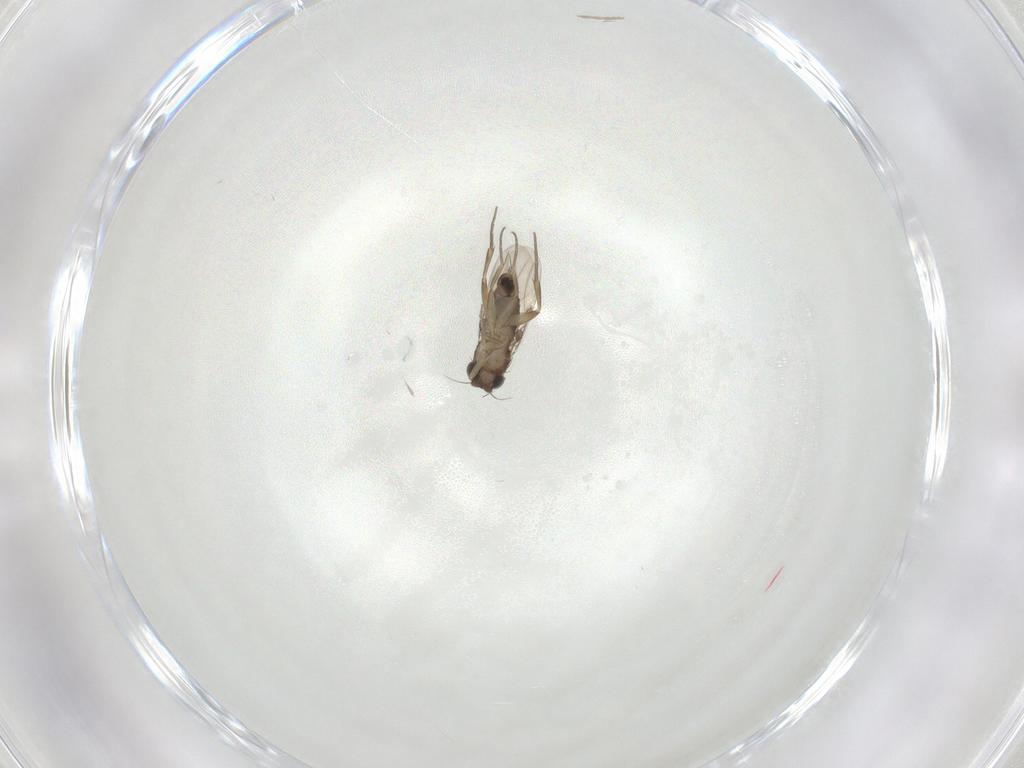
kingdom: Animalia
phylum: Arthropoda
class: Insecta
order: Diptera
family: Phoridae
